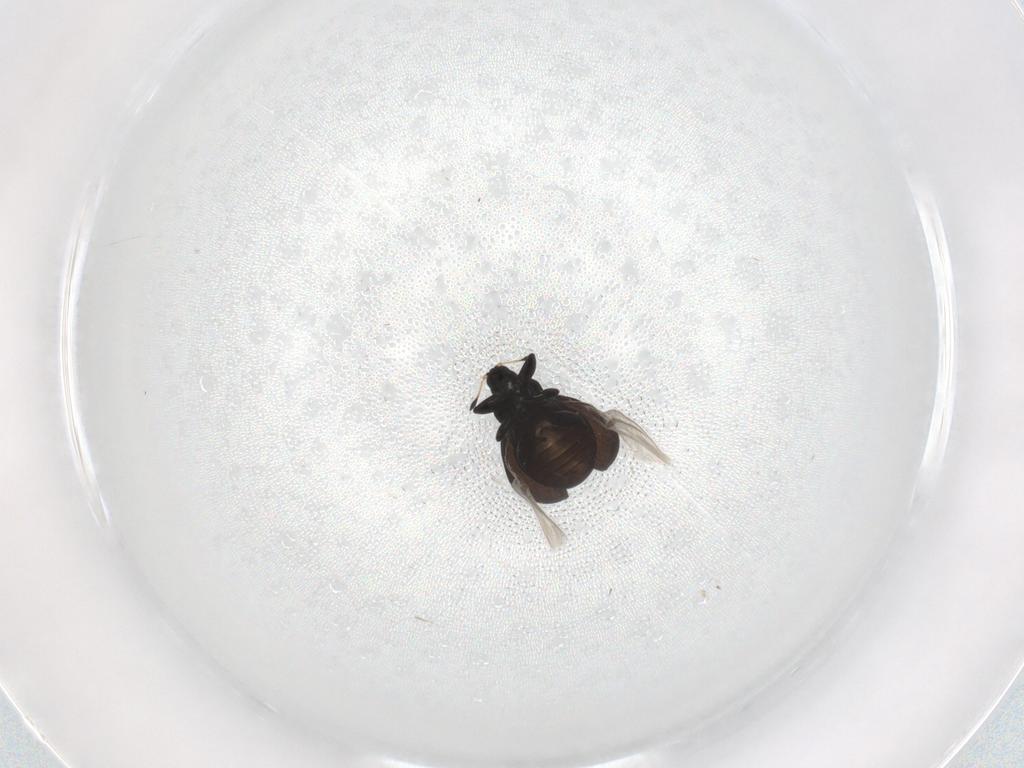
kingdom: Animalia
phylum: Arthropoda
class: Insecta
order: Coleoptera
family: Curculionidae
